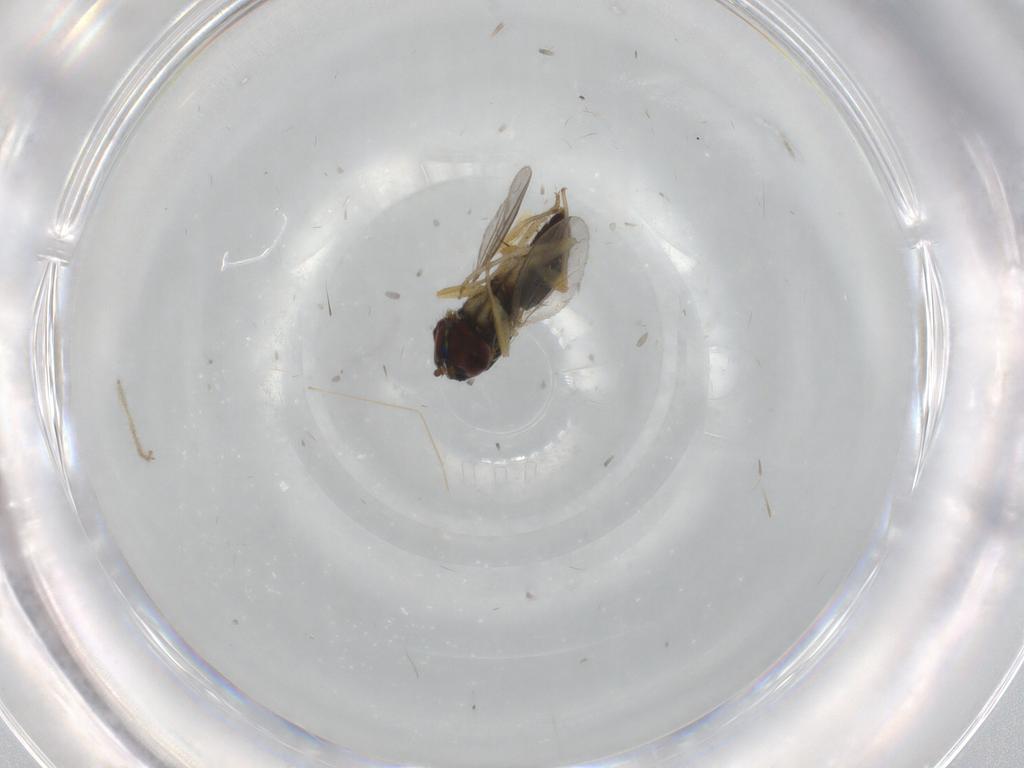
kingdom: Animalia
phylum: Arthropoda
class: Insecta
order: Diptera
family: Dolichopodidae
